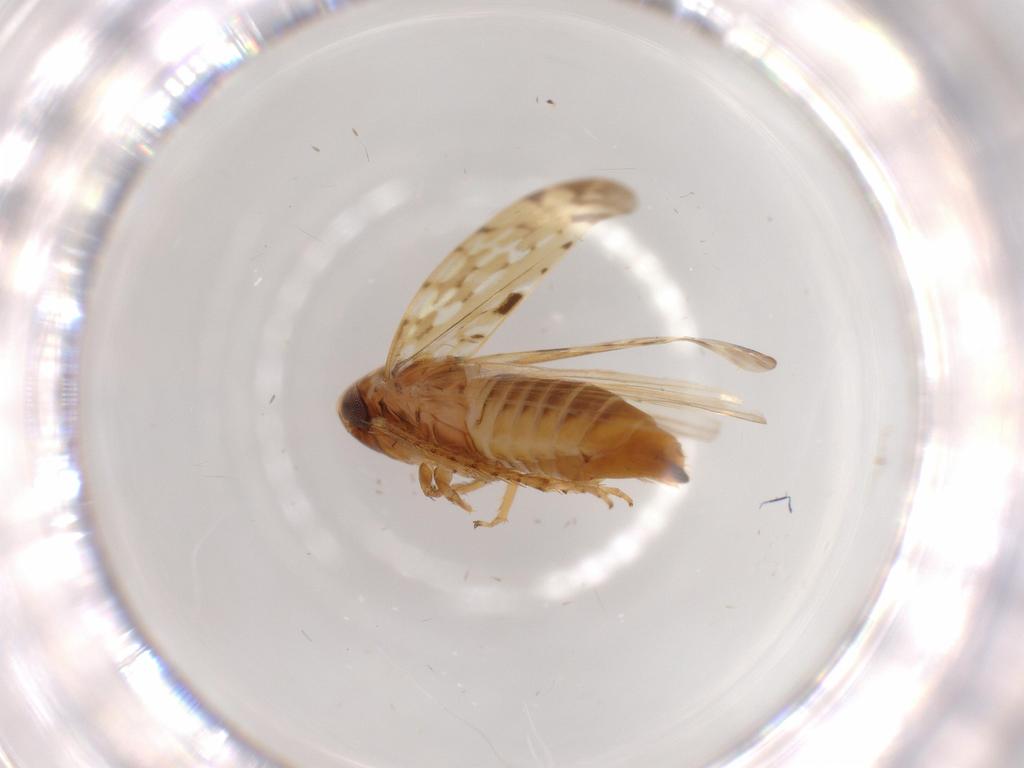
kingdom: Animalia
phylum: Arthropoda
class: Insecta
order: Hemiptera
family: Cicadellidae
